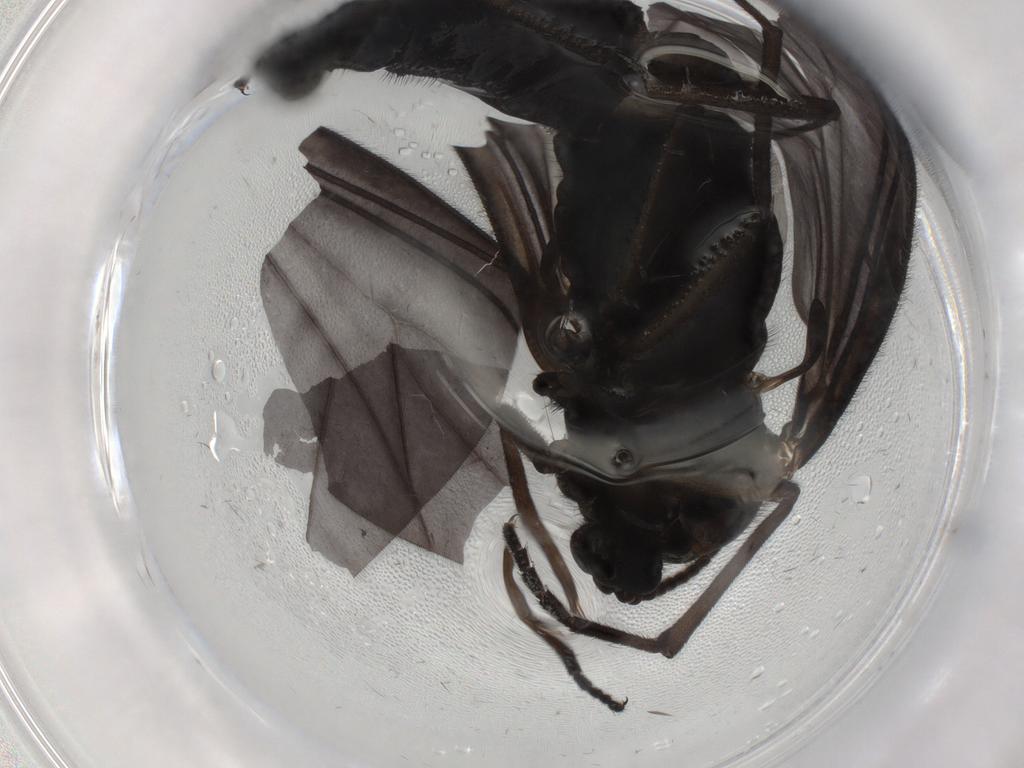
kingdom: Animalia
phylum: Arthropoda
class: Insecta
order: Diptera
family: Sciaridae
